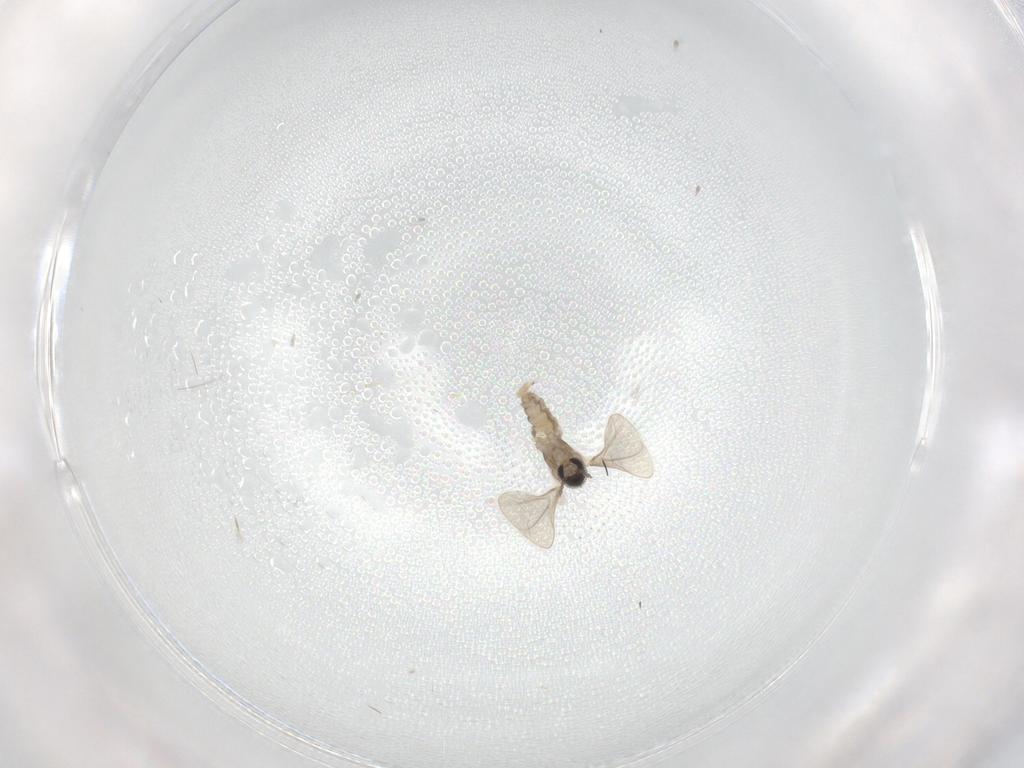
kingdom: Animalia
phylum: Arthropoda
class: Insecta
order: Diptera
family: Cecidomyiidae
